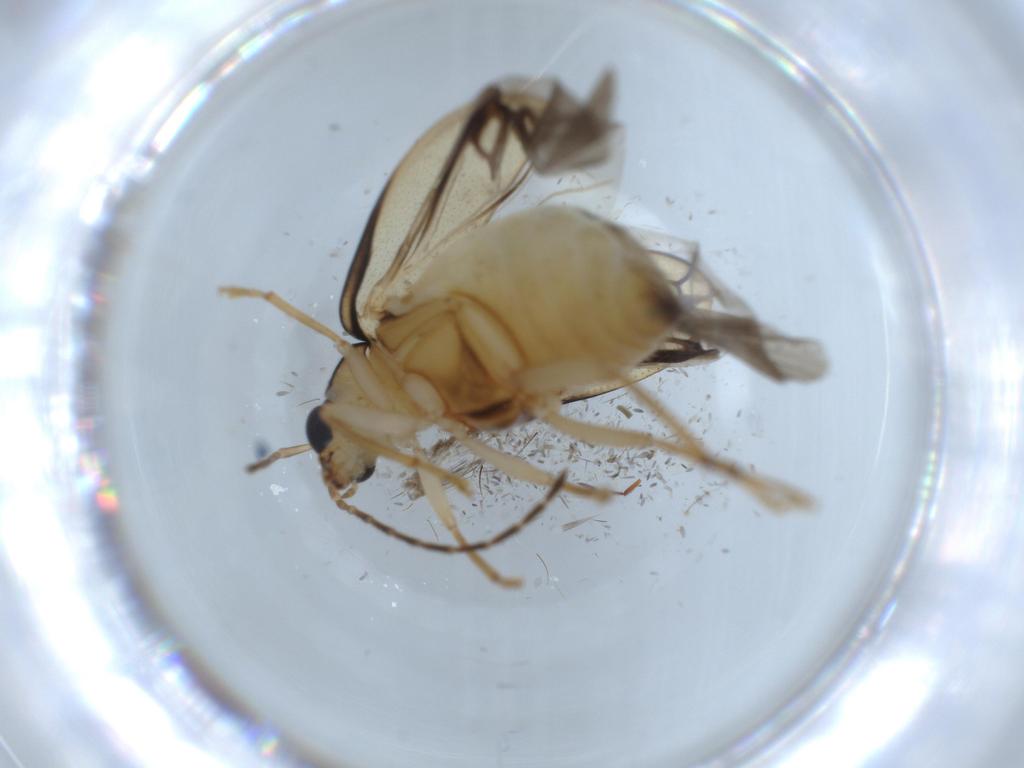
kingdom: Animalia
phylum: Arthropoda
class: Insecta
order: Coleoptera
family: Chrysomelidae
